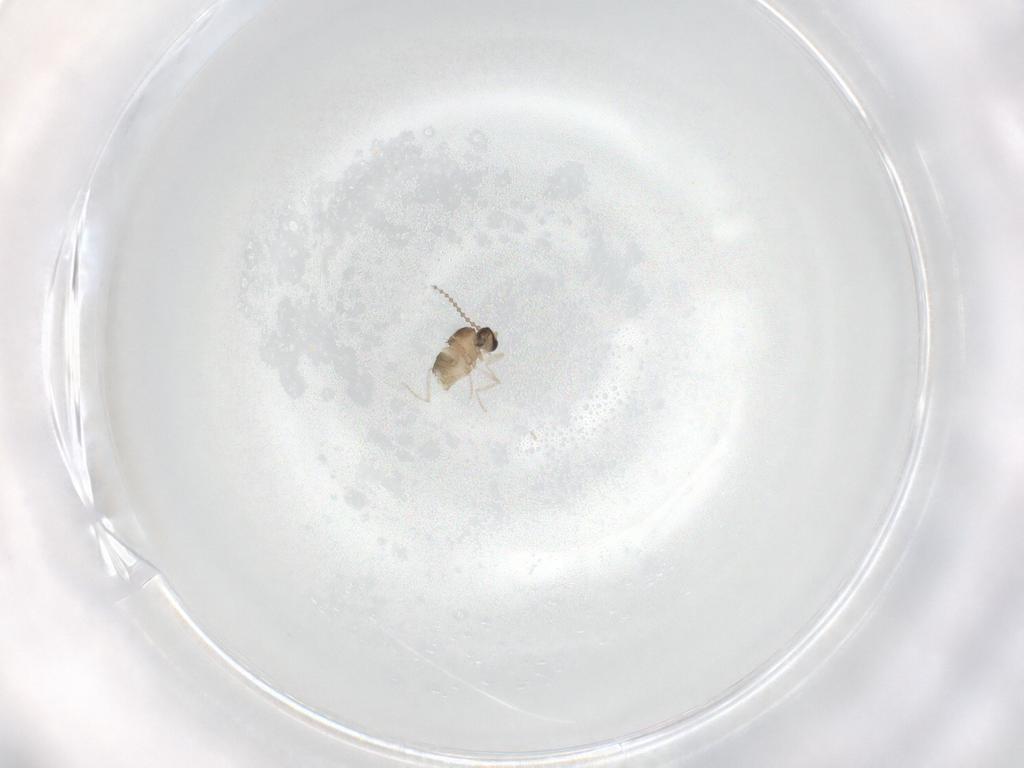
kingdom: Animalia
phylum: Arthropoda
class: Insecta
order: Diptera
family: Cecidomyiidae
